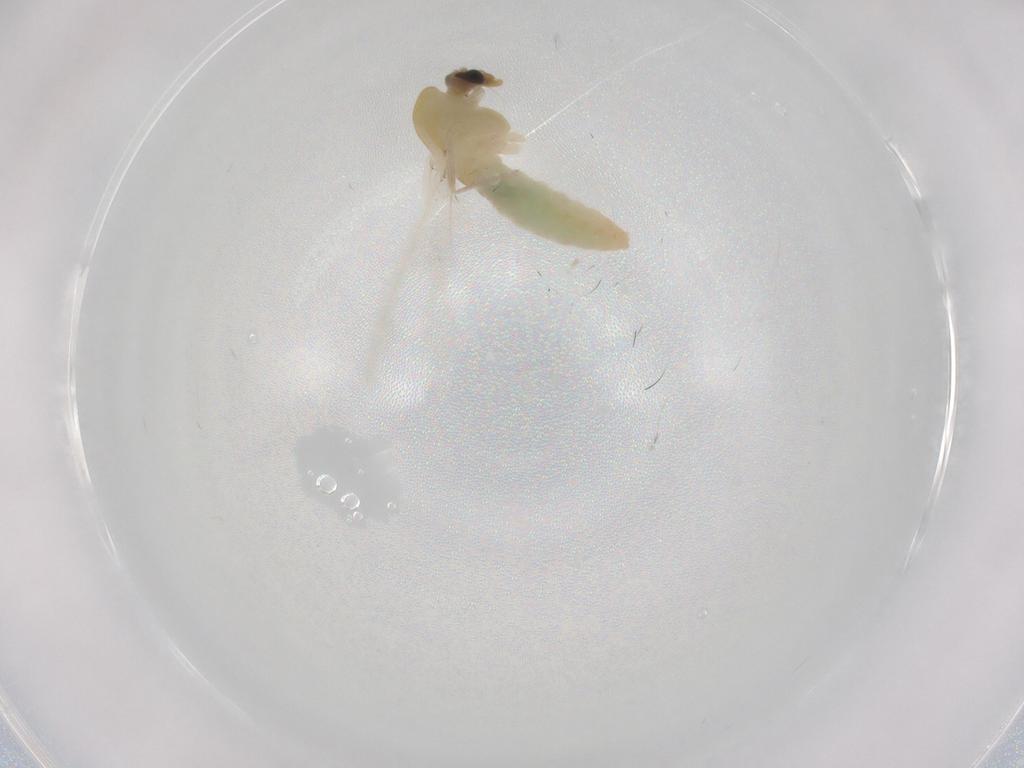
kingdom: Animalia
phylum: Arthropoda
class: Insecta
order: Diptera
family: Chironomidae
